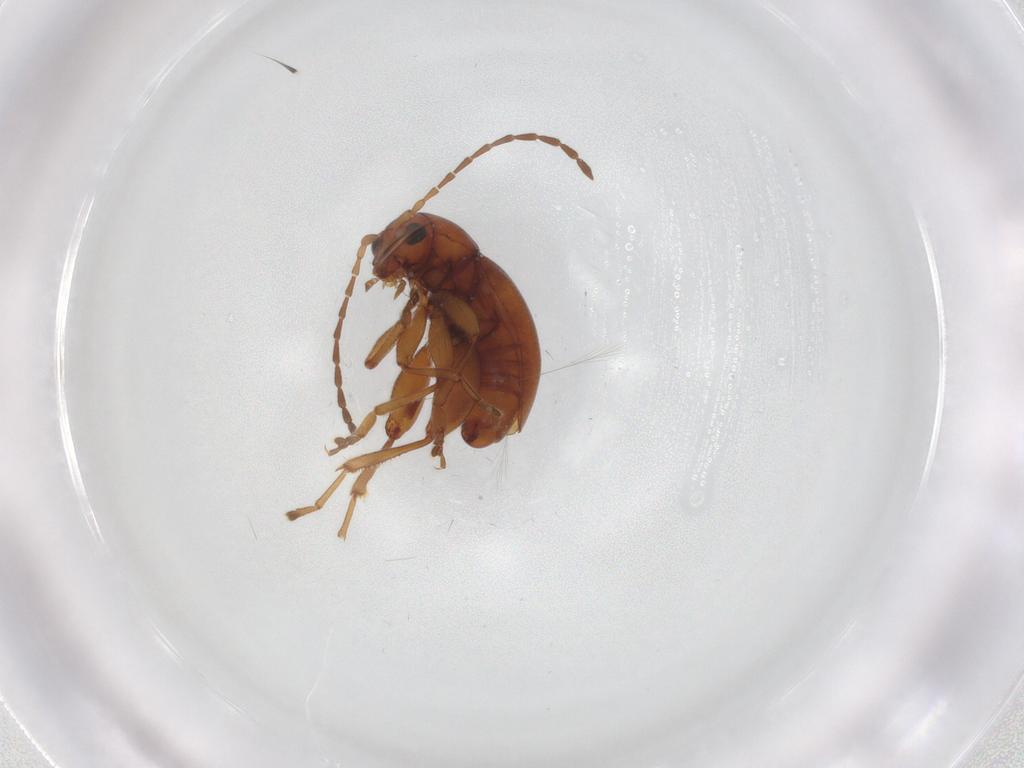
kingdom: Animalia
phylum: Arthropoda
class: Insecta
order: Coleoptera
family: Chrysomelidae
